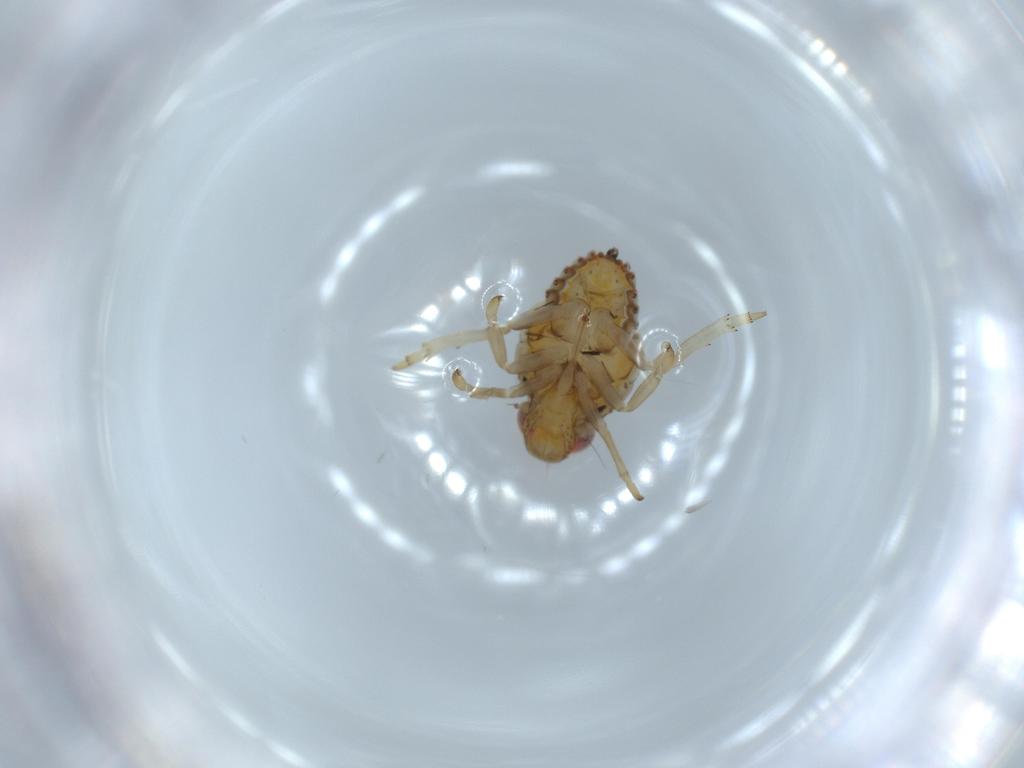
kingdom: Animalia
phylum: Arthropoda
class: Insecta
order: Hemiptera
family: Issidae
